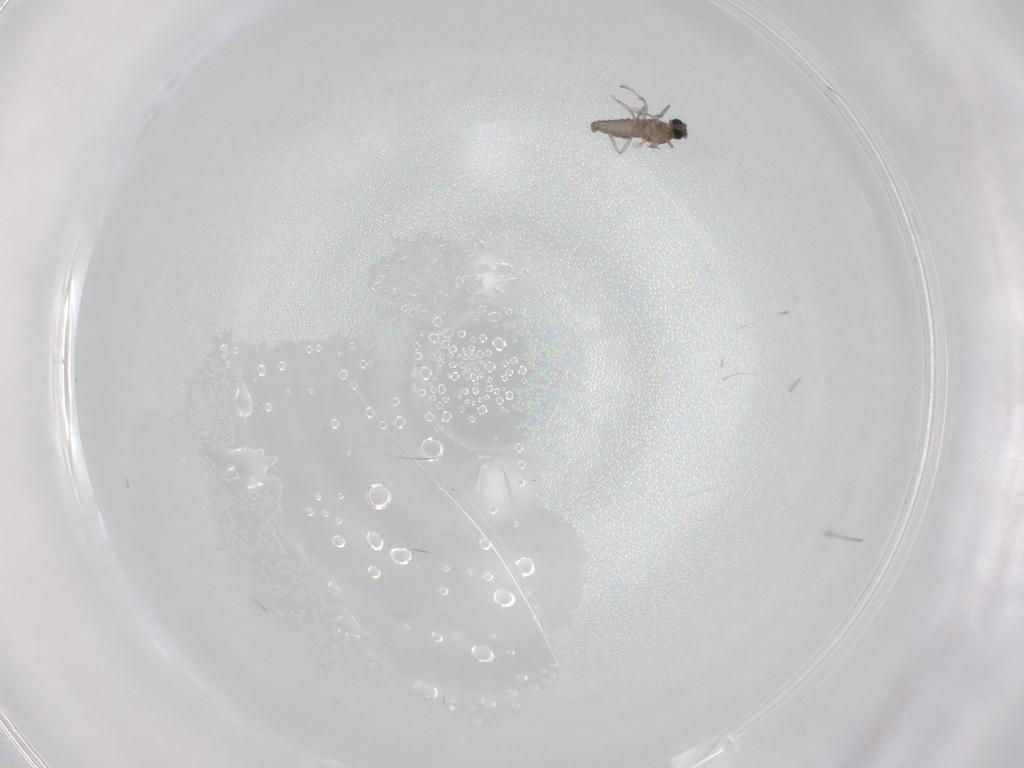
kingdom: Animalia
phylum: Arthropoda
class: Insecta
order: Diptera
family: Cecidomyiidae
